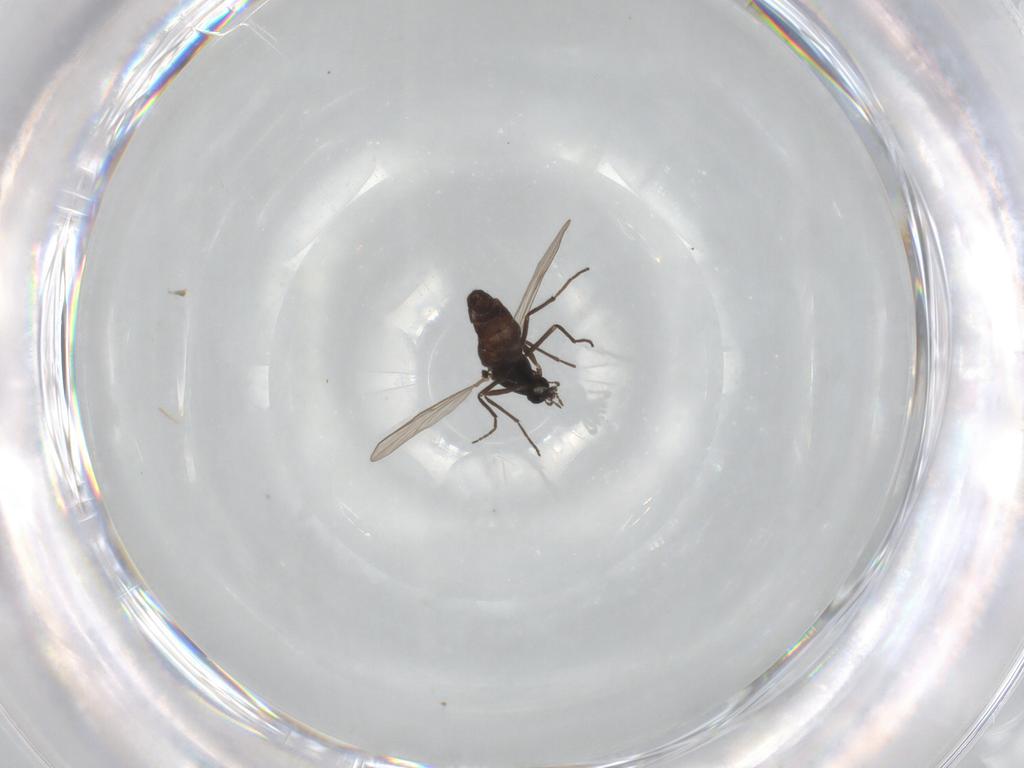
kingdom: Animalia
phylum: Arthropoda
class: Insecta
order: Diptera
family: Chironomidae
